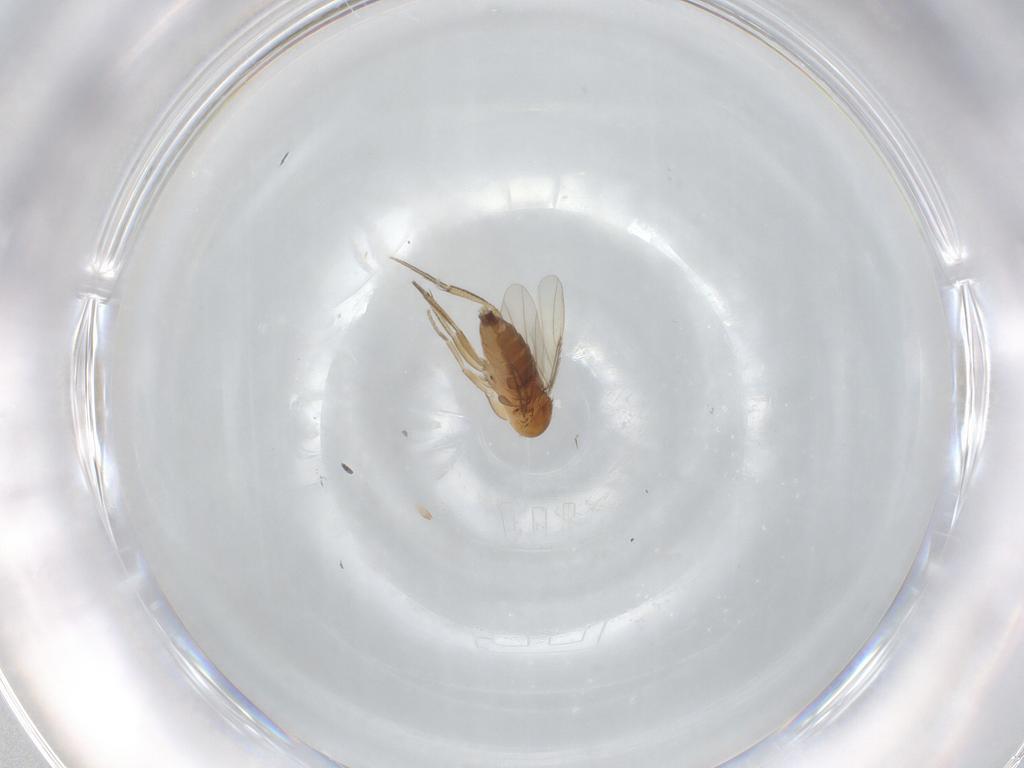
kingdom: Animalia
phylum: Arthropoda
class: Insecta
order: Diptera
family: Phoridae
